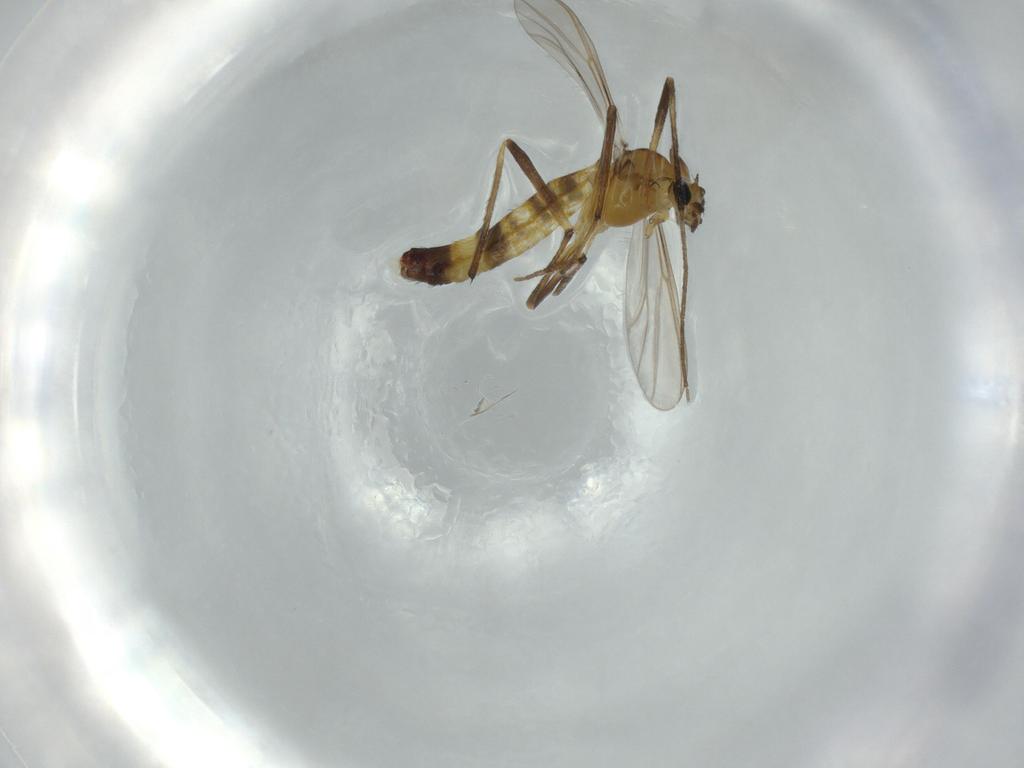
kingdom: Animalia
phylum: Arthropoda
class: Insecta
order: Diptera
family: Chironomidae
